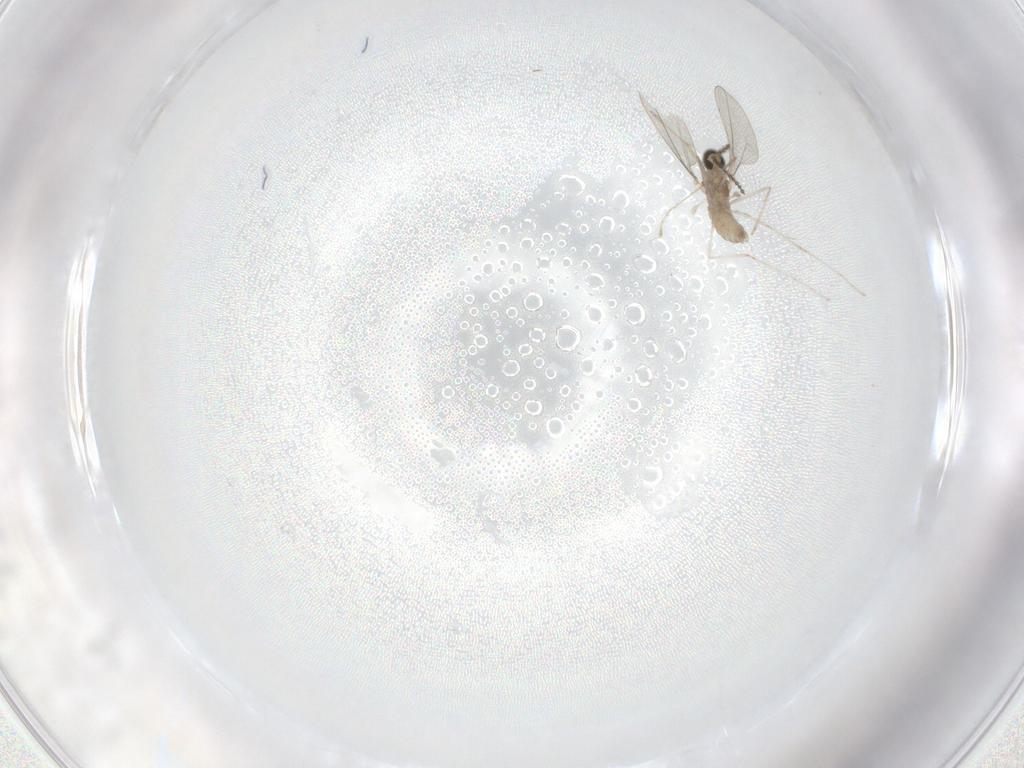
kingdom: Animalia
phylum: Arthropoda
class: Insecta
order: Diptera
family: Cecidomyiidae
